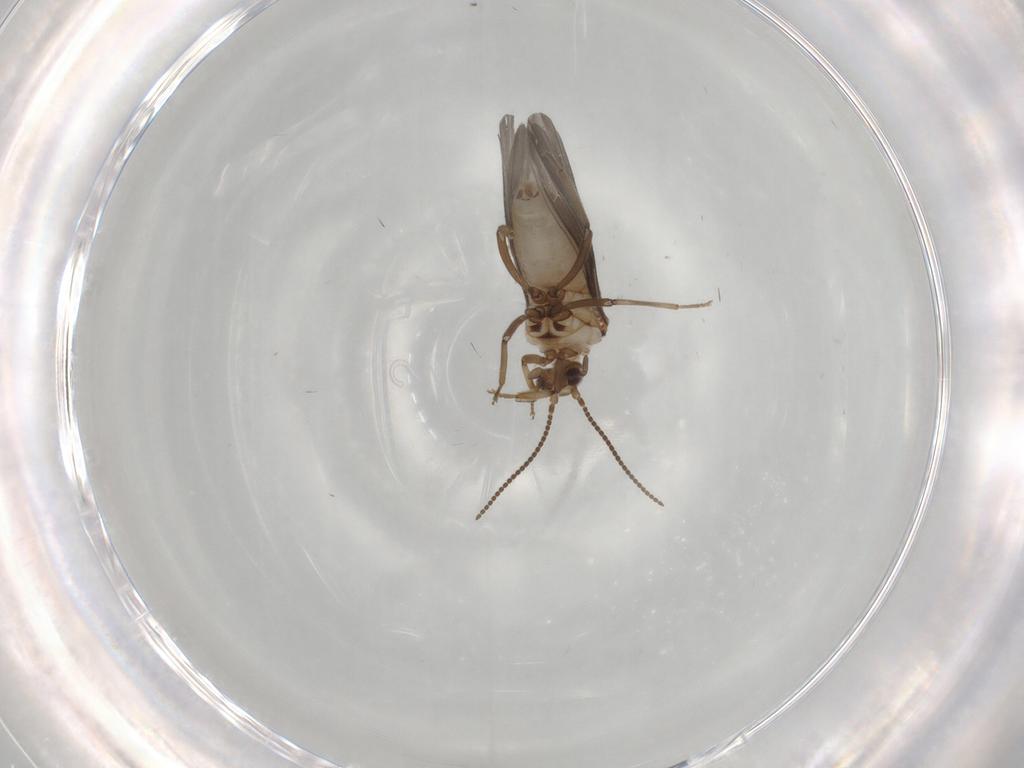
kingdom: Animalia
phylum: Arthropoda
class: Insecta
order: Neuroptera
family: Coniopterygidae
